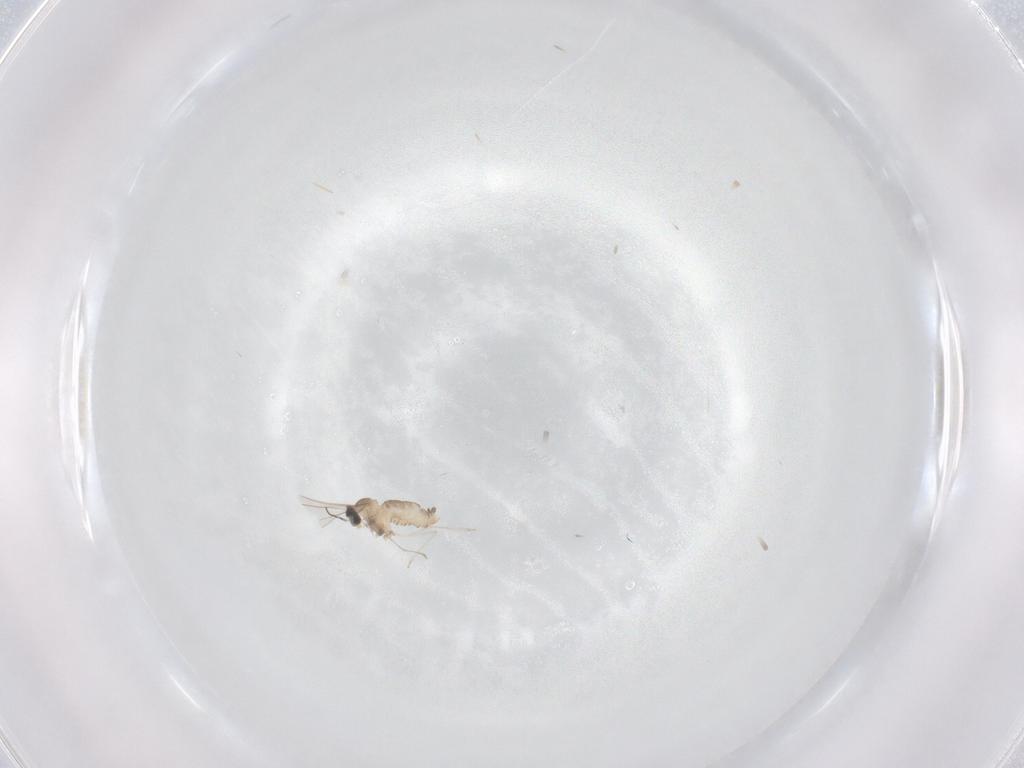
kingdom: Animalia
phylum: Arthropoda
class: Insecta
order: Diptera
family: Cecidomyiidae
